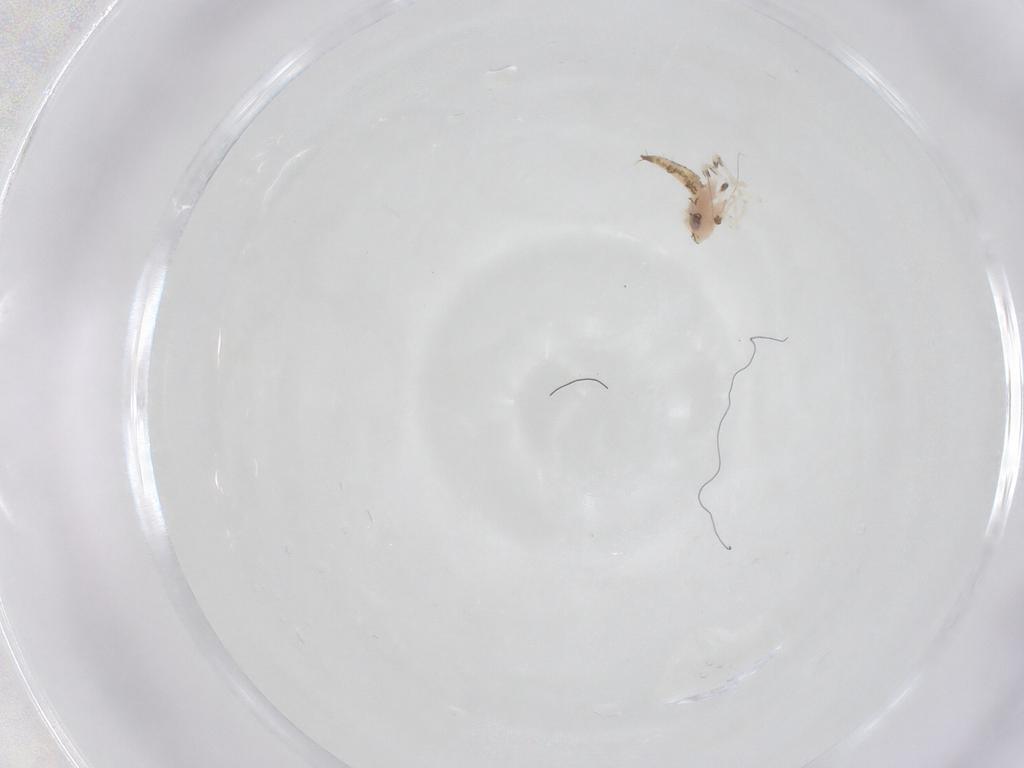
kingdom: Animalia
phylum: Arthropoda
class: Insecta
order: Hemiptera
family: Cicadellidae
